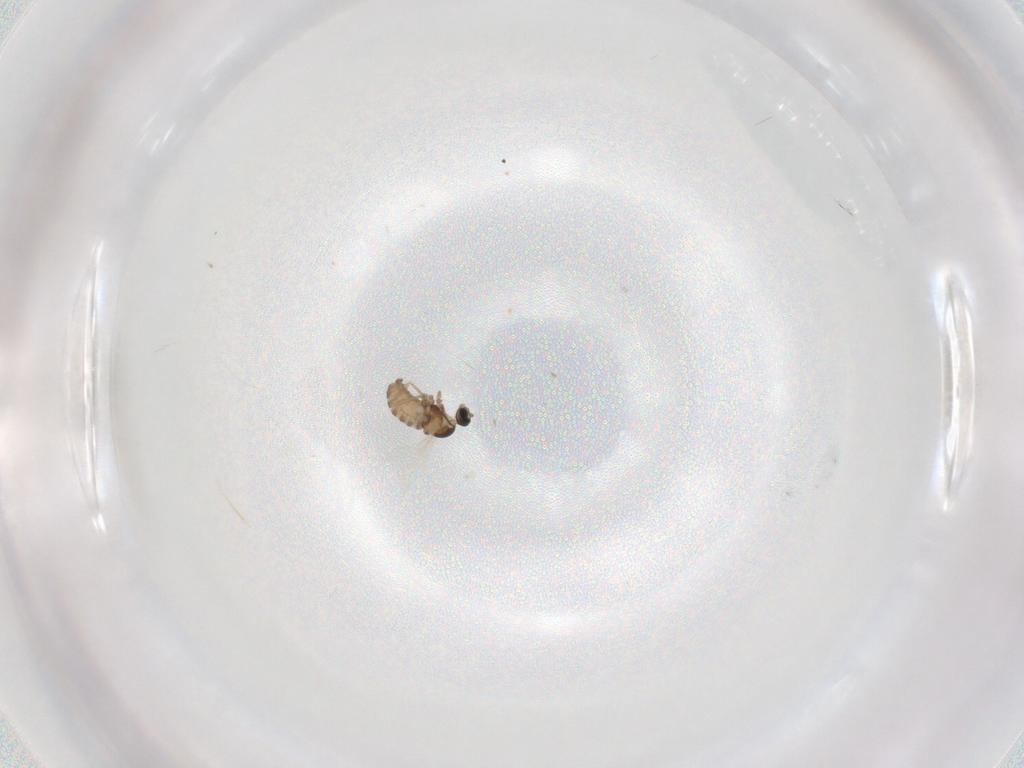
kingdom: Animalia
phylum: Arthropoda
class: Insecta
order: Diptera
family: Cecidomyiidae
